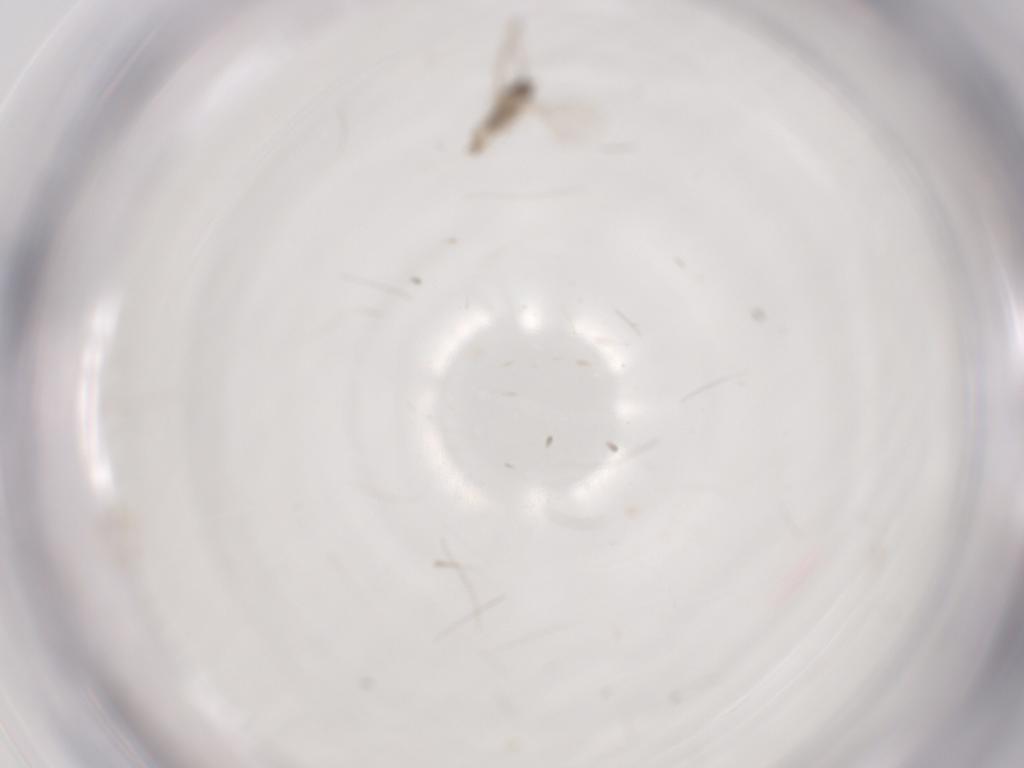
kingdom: Animalia
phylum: Arthropoda
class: Insecta
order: Diptera
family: Cecidomyiidae
